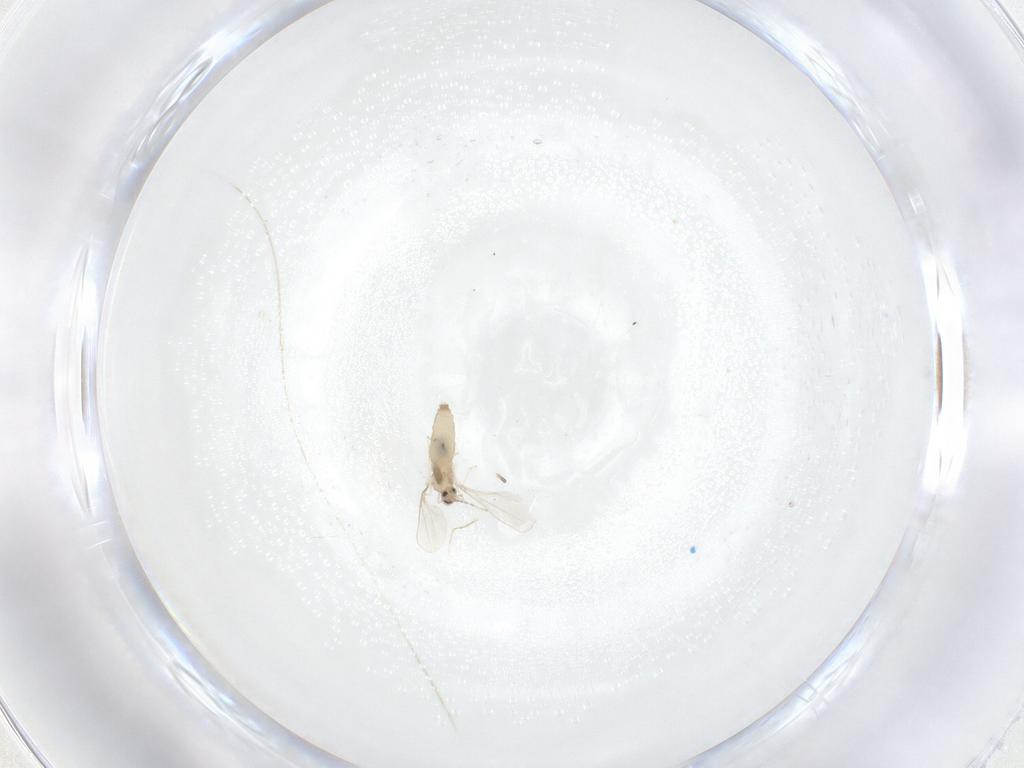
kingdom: Animalia
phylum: Arthropoda
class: Insecta
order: Diptera
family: Cecidomyiidae
